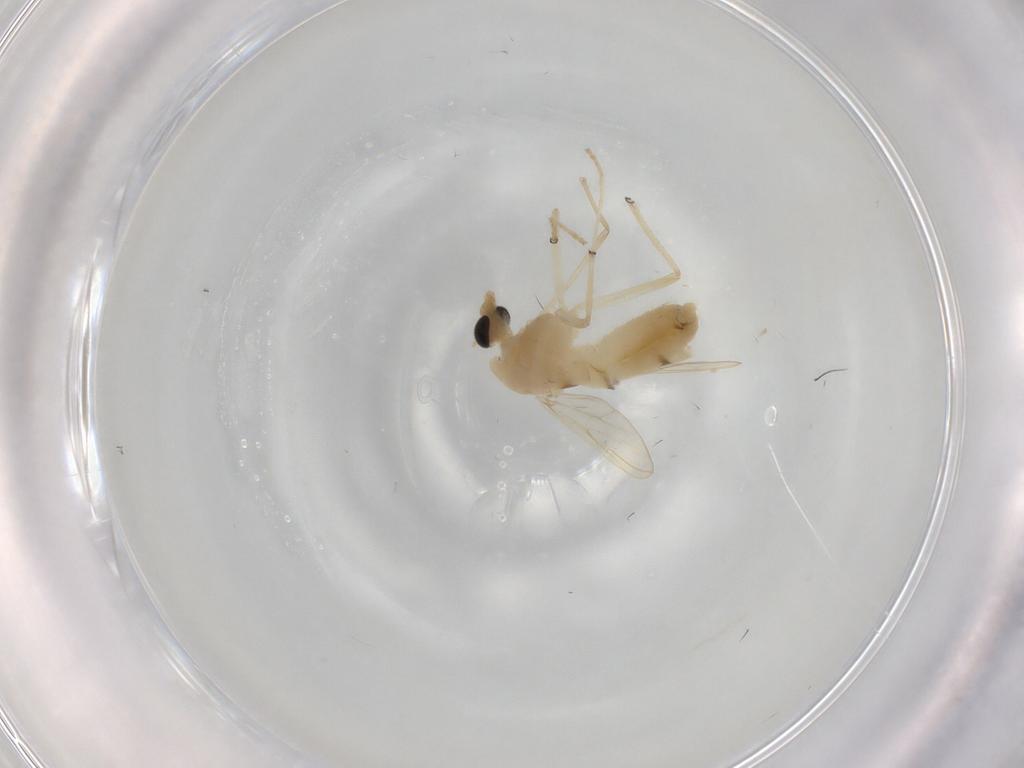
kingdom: Animalia
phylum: Arthropoda
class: Insecta
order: Diptera
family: Chironomidae
